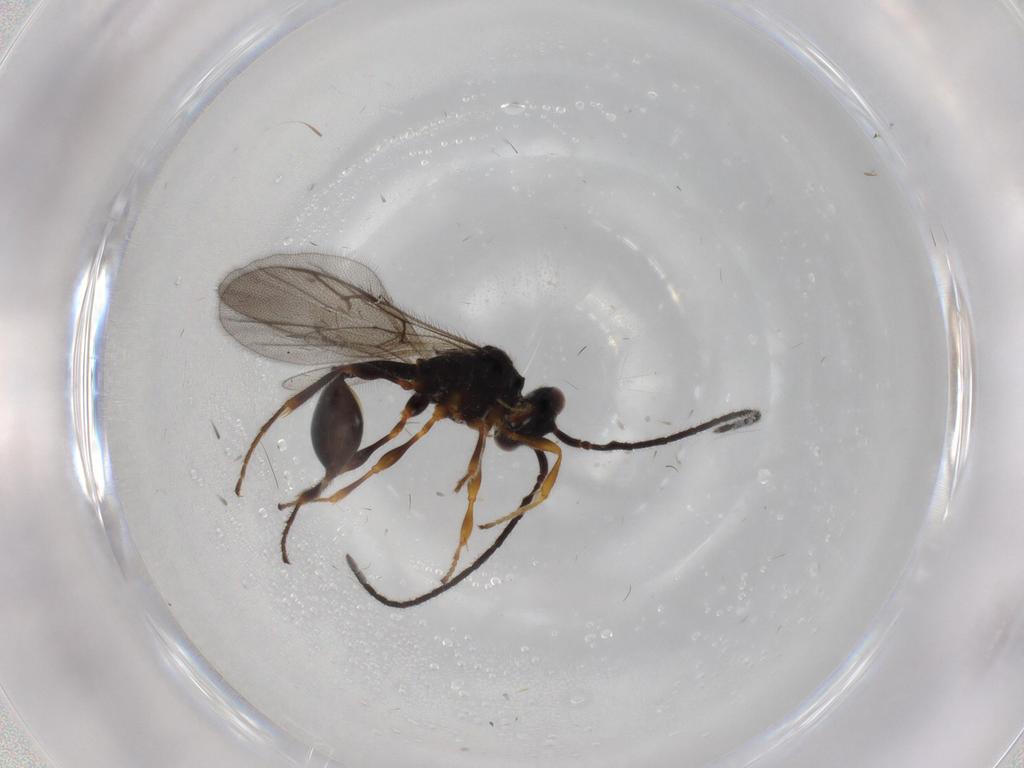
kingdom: Animalia
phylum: Arthropoda
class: Insecta
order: Hymenoptera
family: Diapriidae
